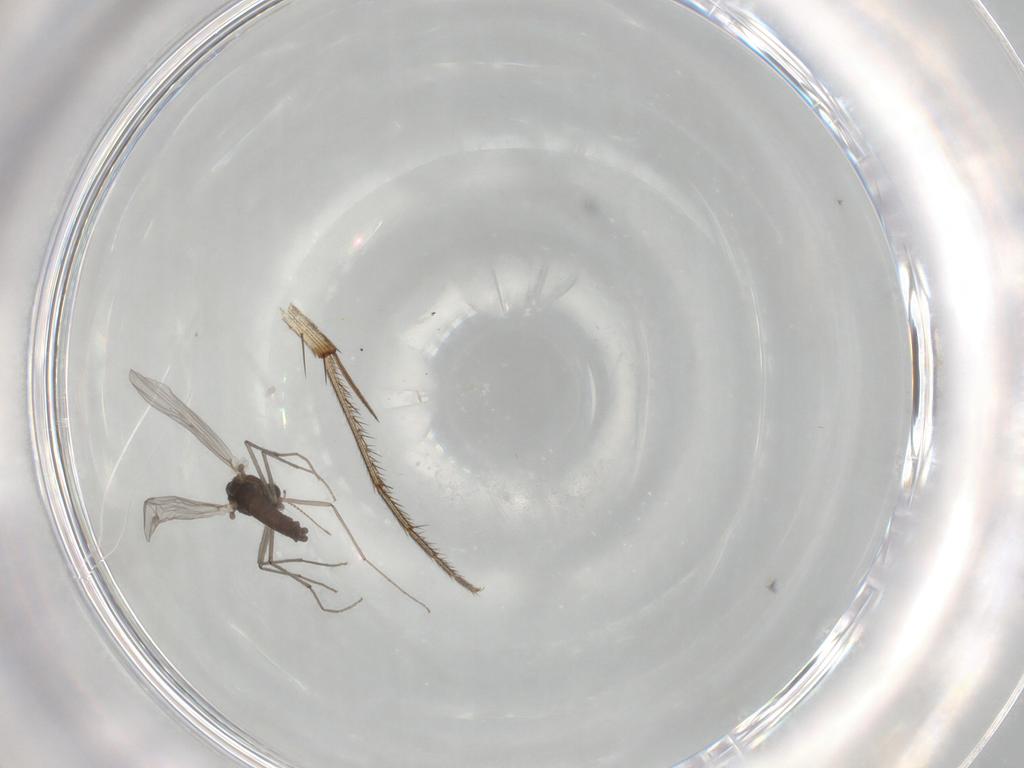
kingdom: Animalia
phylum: Arthropoda
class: Insecta
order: Diptera
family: Chironomidae
